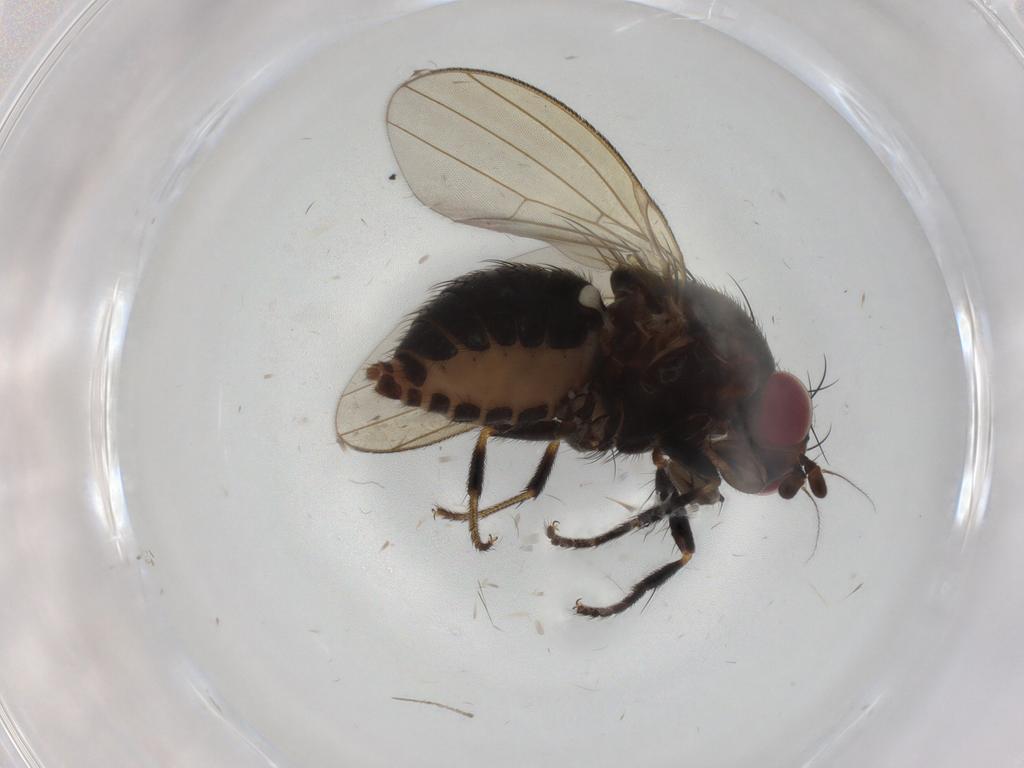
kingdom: Animalia
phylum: Arthropoda
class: Insecta
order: Diptera
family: Chironomidae
